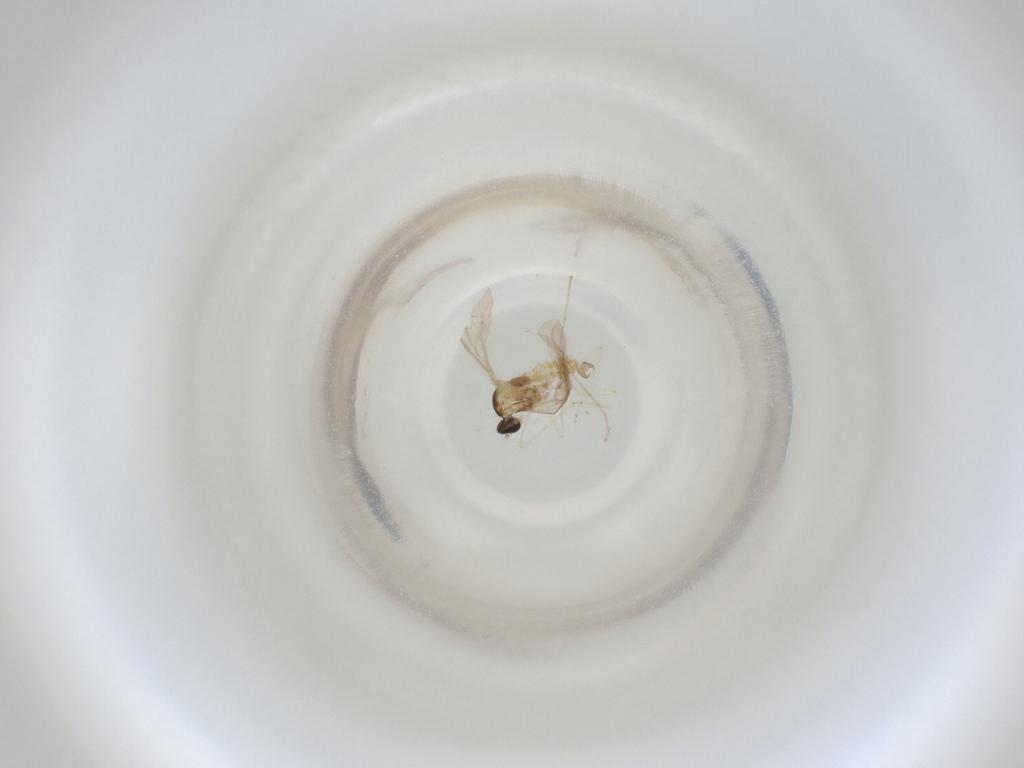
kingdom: Animalia
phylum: Arthropoda
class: Insecta
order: Diptera
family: Cecidomyiidae
